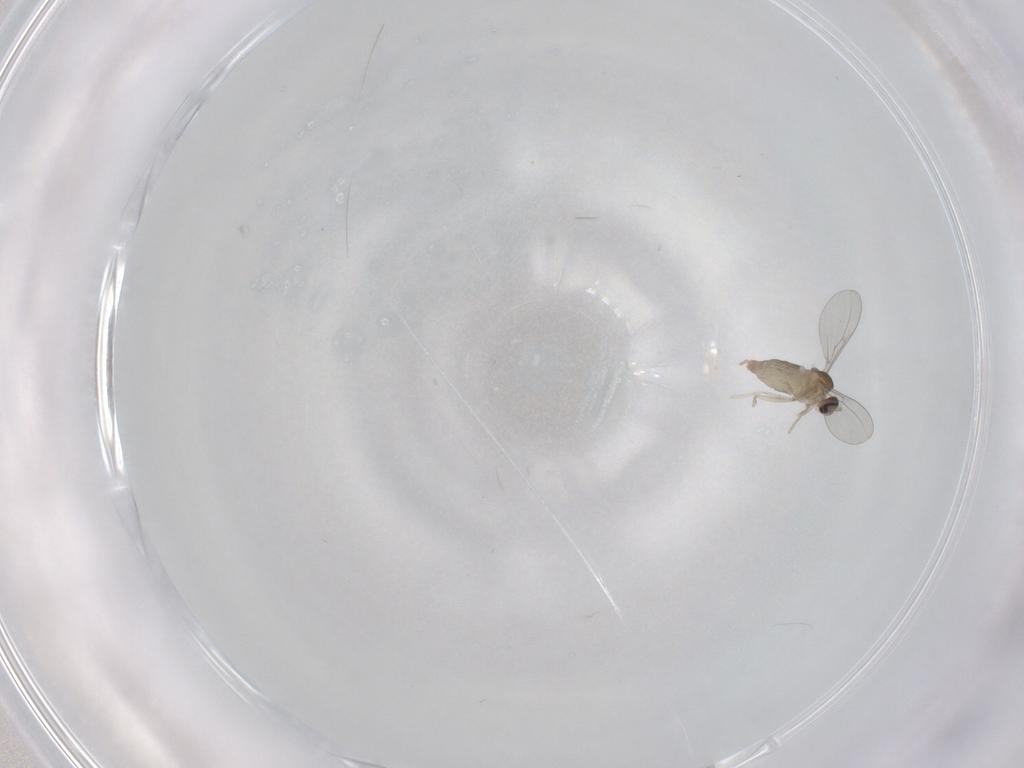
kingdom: Animalia
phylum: Arthropoda
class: Insecta
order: Diptera
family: Cecidomyiidae
